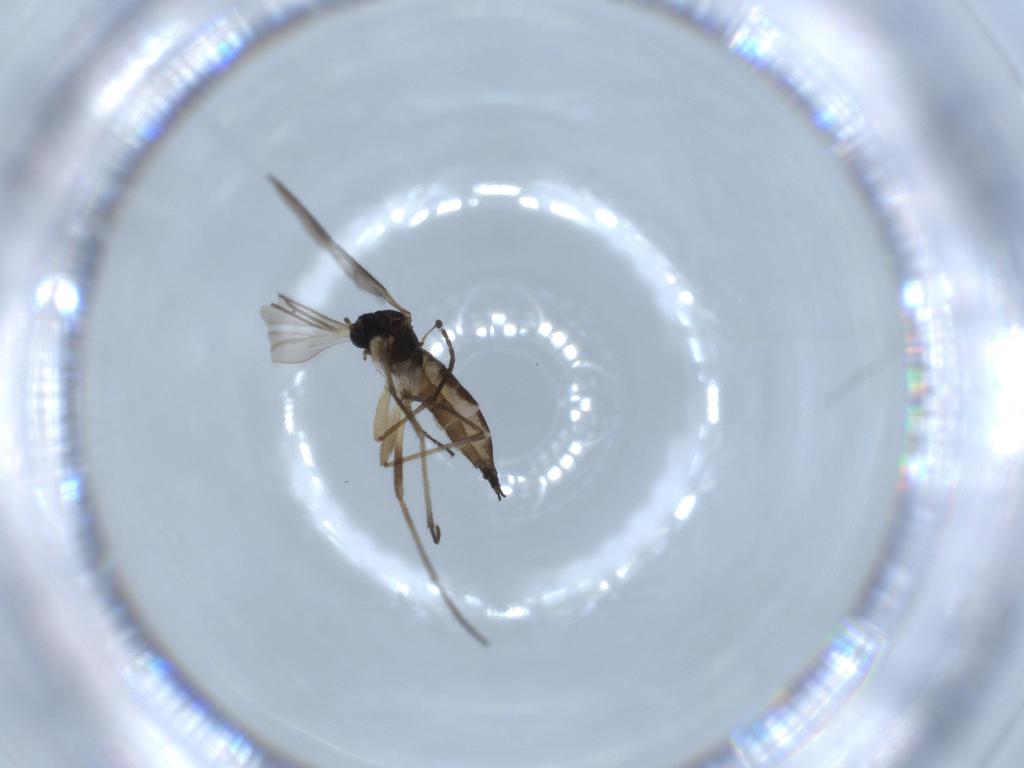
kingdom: Animalia
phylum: Arthropoda
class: Insecta
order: Diptera
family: Sciaridae
